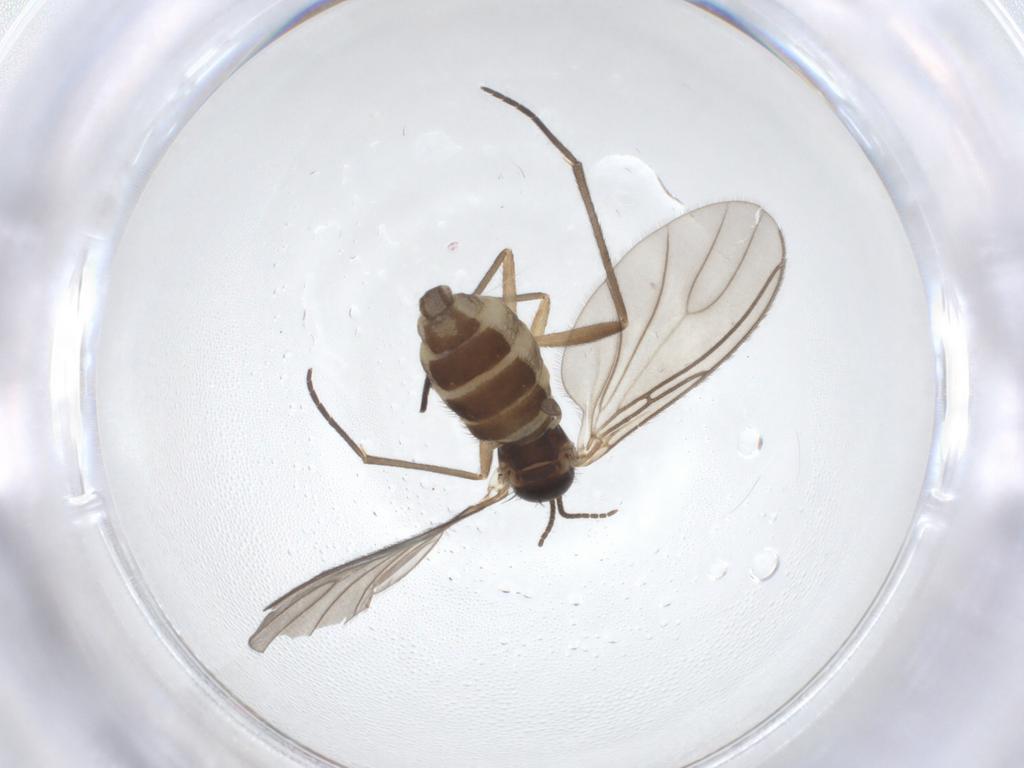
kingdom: Animalia
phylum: Arthropoda
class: Insecta
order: Diptera
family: Sciaridae
